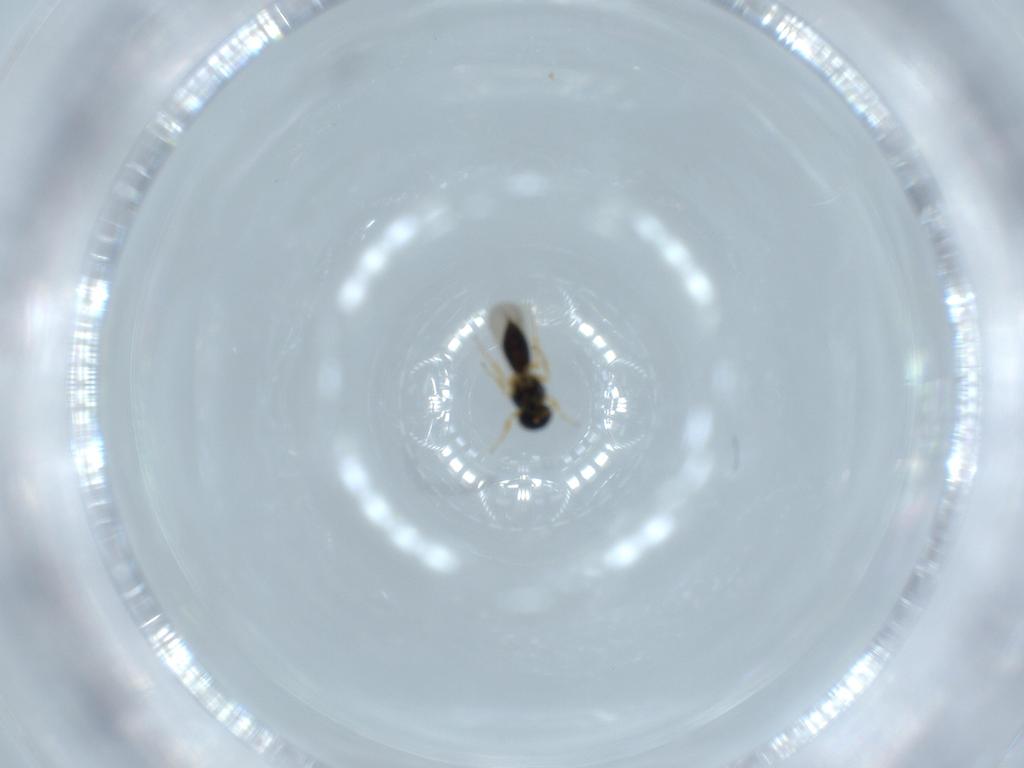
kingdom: Animalia
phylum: Arthropoda
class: Insecta
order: Hymenoptera
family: Scelionidae
